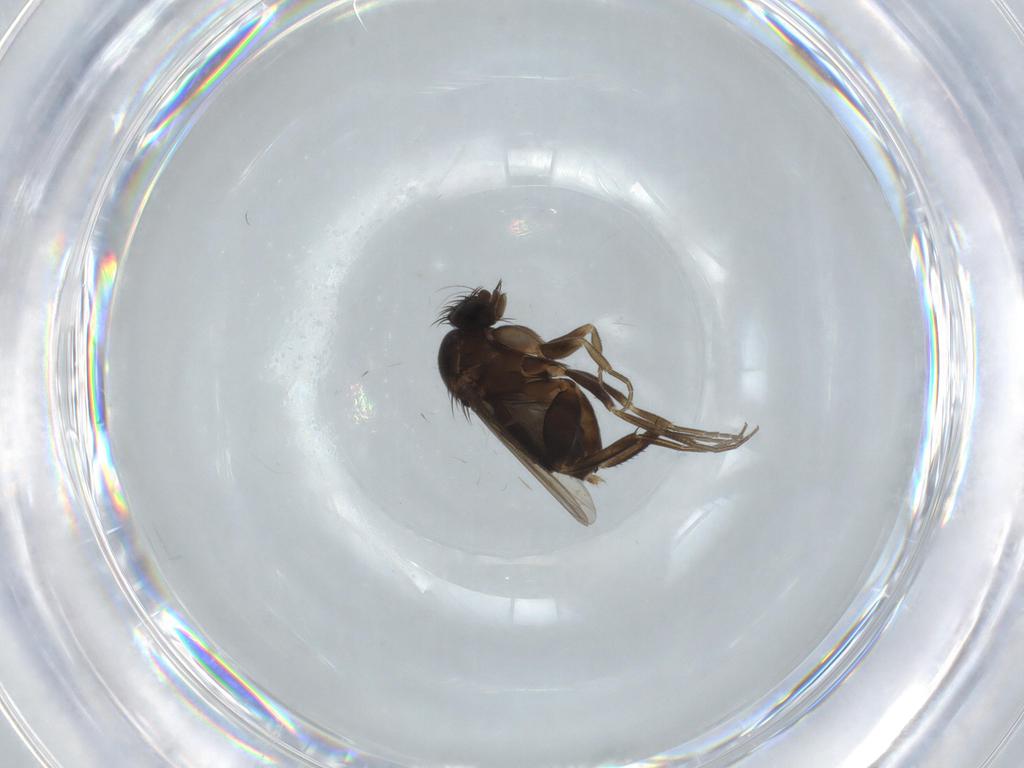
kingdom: Animalia
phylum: Arthropoda
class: Insecta
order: Diptera
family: Phoridae
